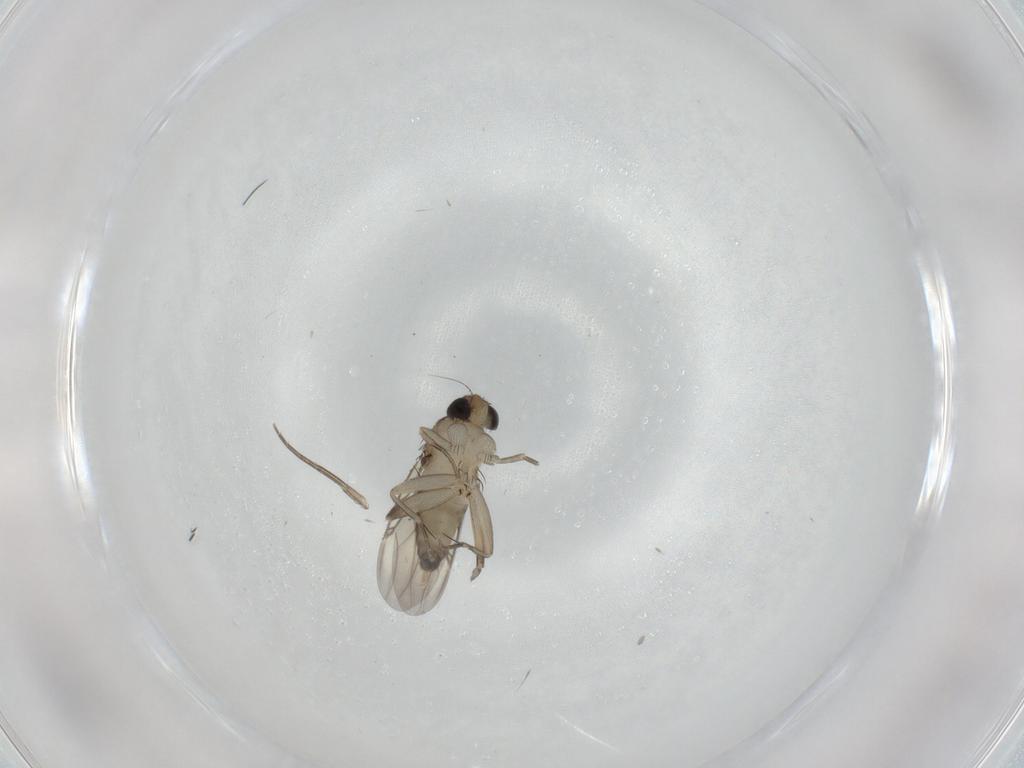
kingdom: Animalia
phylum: Arthropoda
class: Insecta
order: Diptera
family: Phoridae
